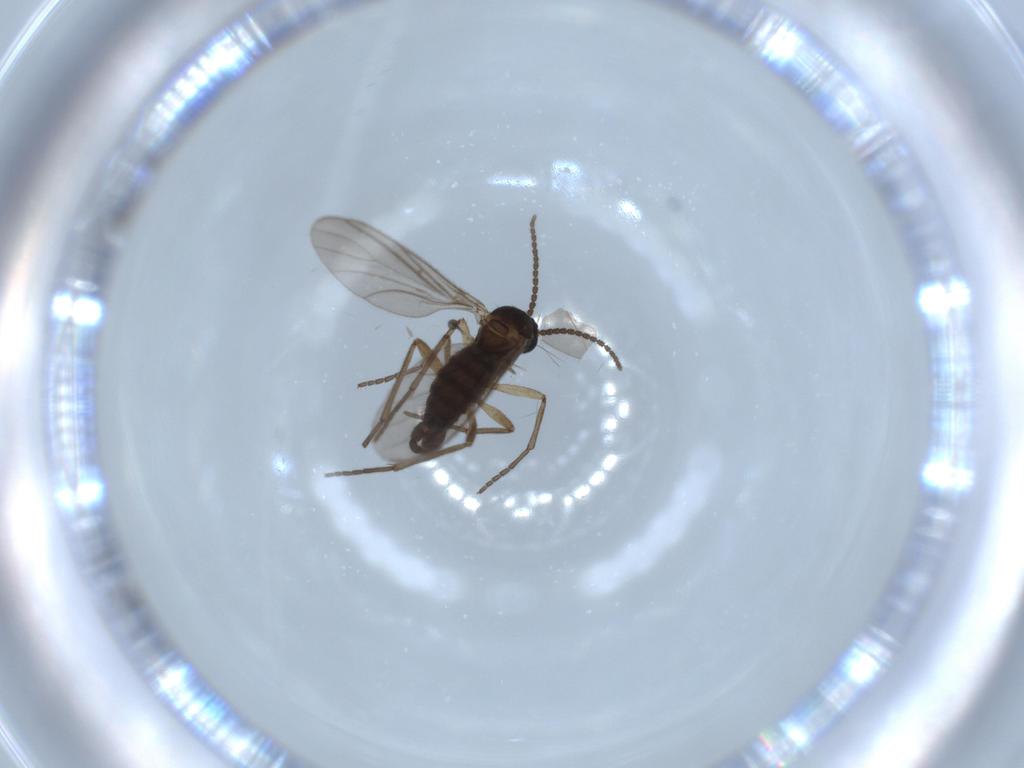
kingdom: Animalia
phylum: Arthropoda
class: Insecta
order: Diptera
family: Sciaridae
